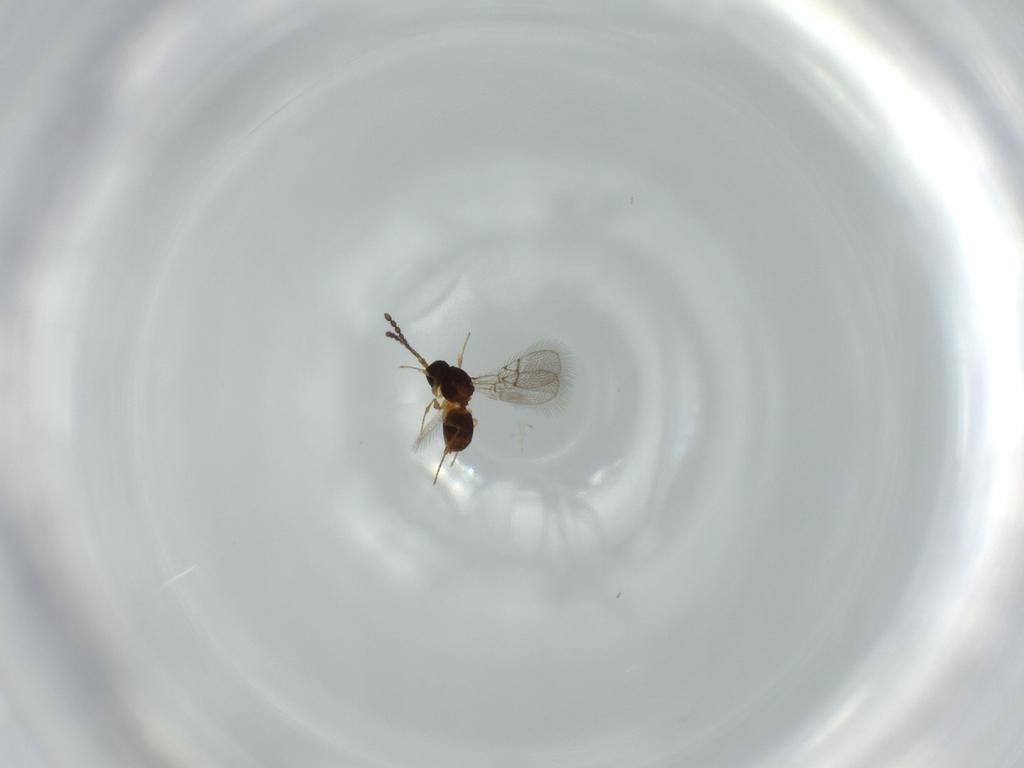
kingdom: Animalia
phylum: Arthropoda
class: Insecta
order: Hymenoptera
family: Figitidae
